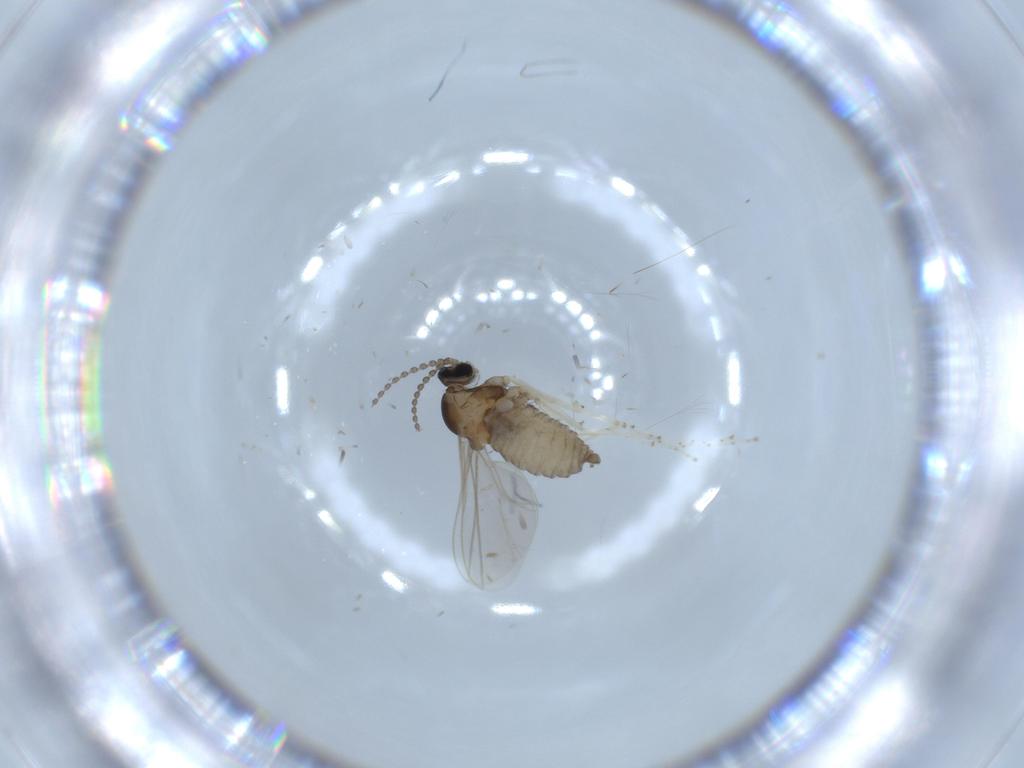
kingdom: Animalia
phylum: Arthropoda
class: Insecta
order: Diptera
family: Cecidomyiidae
